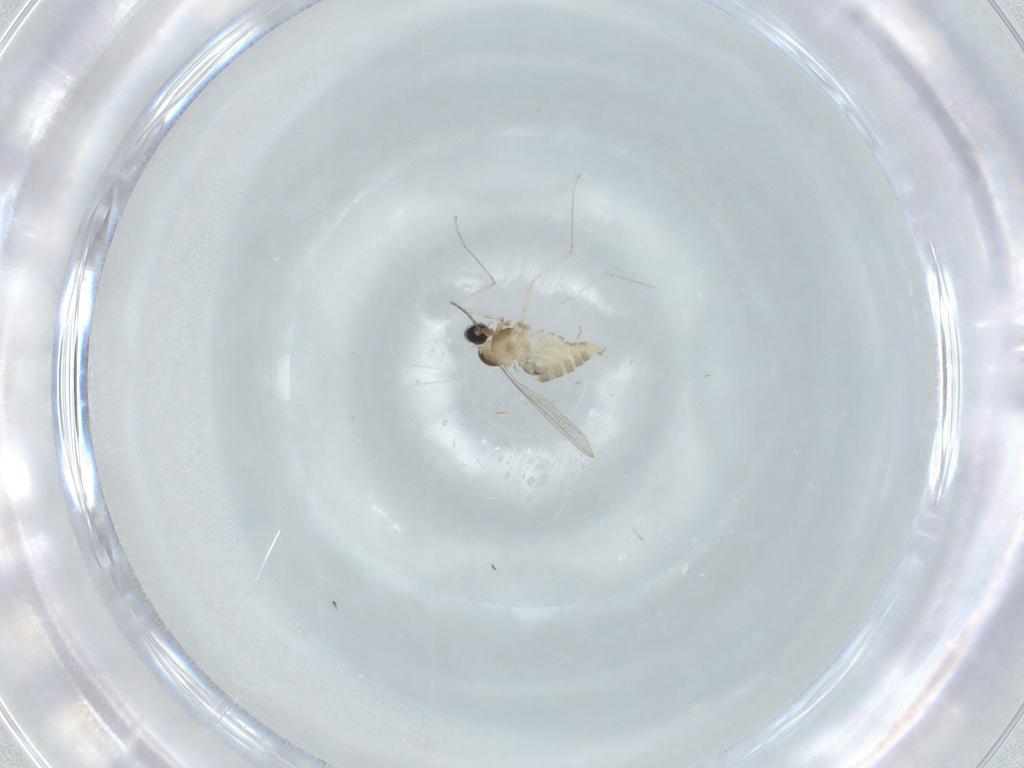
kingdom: Animalia
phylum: Arthropoda
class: Insecta
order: Diptera
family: Cecidomyiidae
